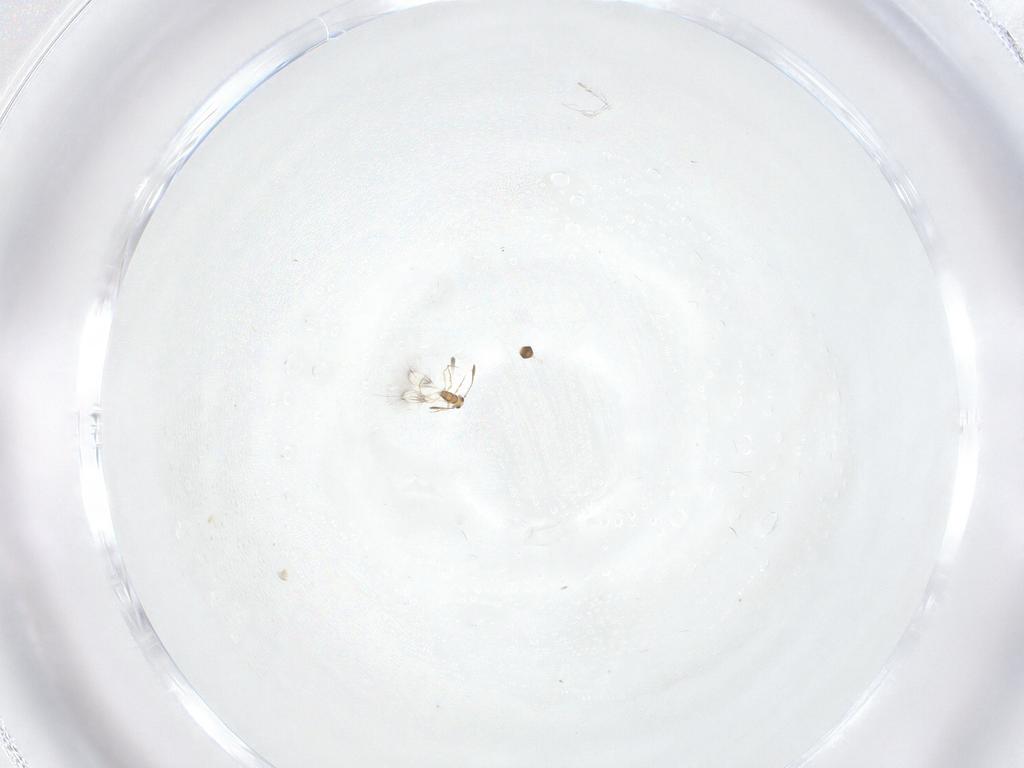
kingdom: Animalia
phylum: Arthropoda
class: Insecta
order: Hymenoptera
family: Mymarommatidae
